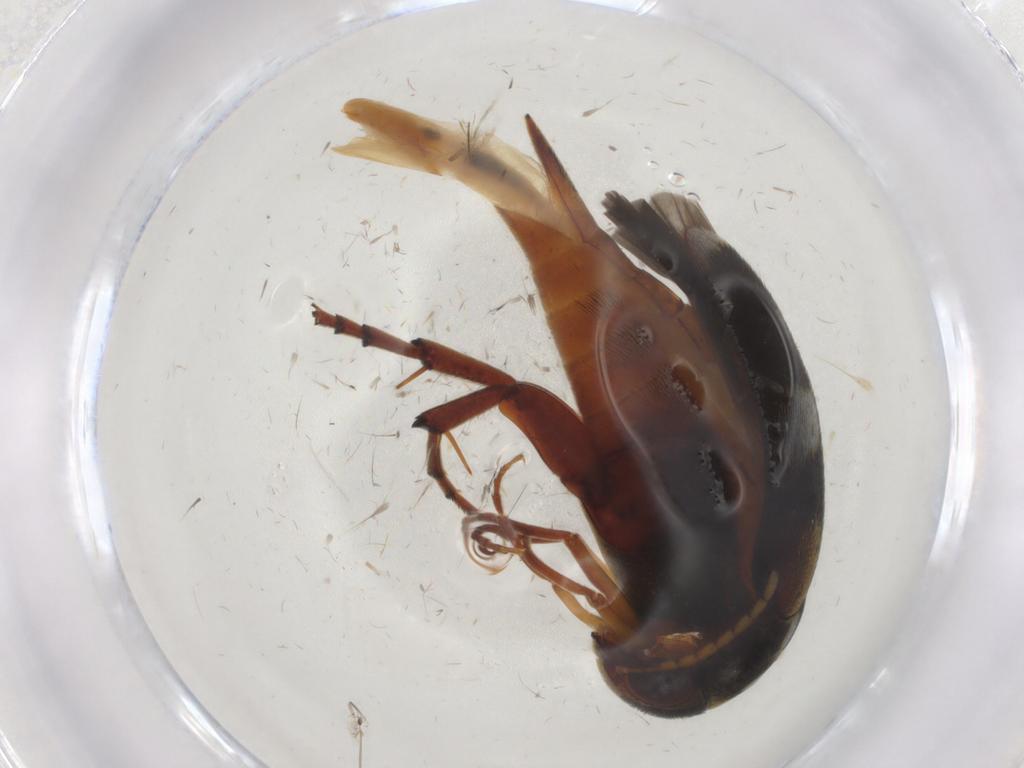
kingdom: Animalia
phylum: Arthropoda
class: Insecta
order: Coleoptera
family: Mordellidae
